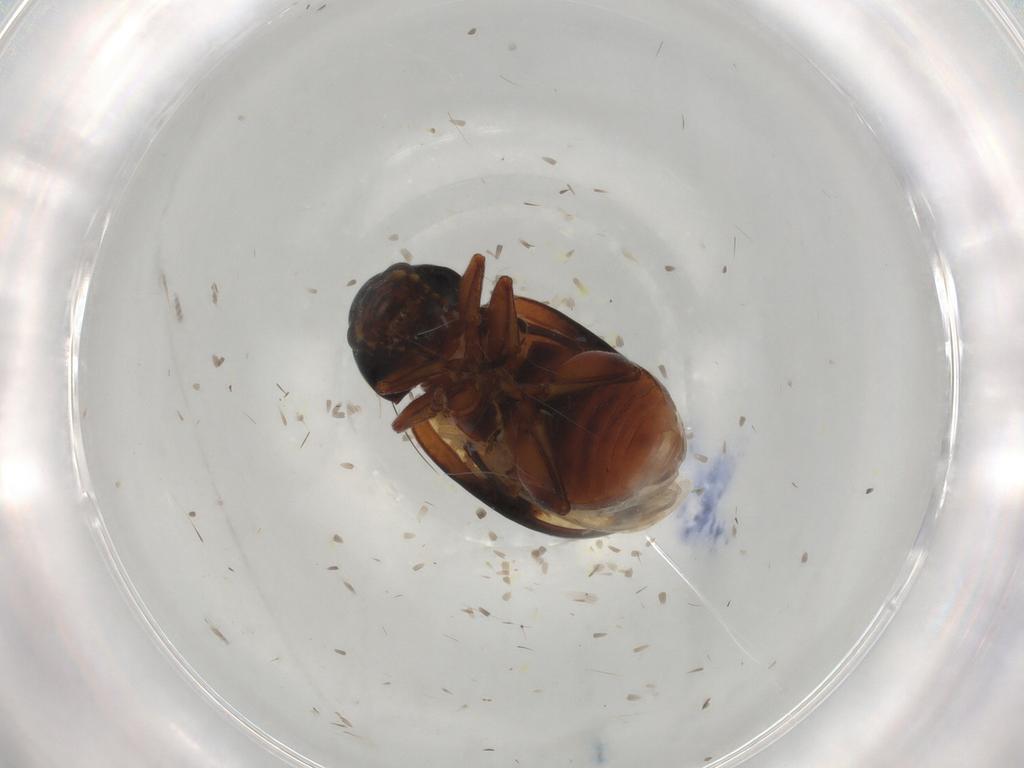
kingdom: Animalia
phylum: Arthropoda
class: Insecta
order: Coleoptera
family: Chrysomelidae
